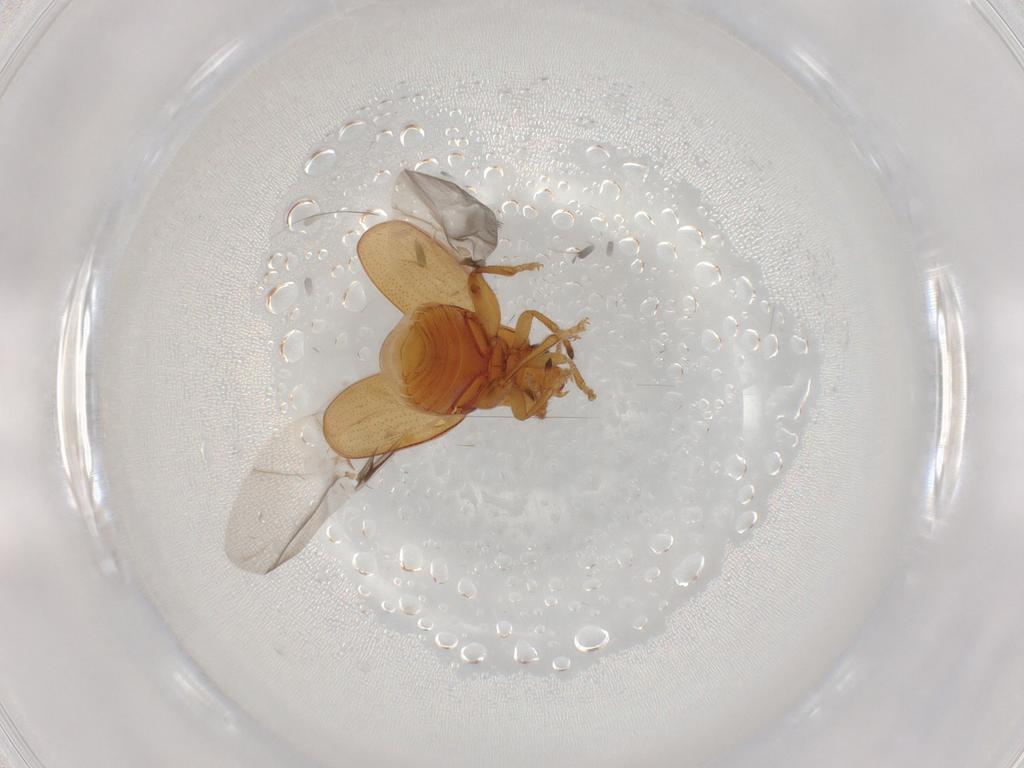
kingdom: Animalia
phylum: Arthropoda
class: Insecta
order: Coleoptera
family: Chrysomelidae
